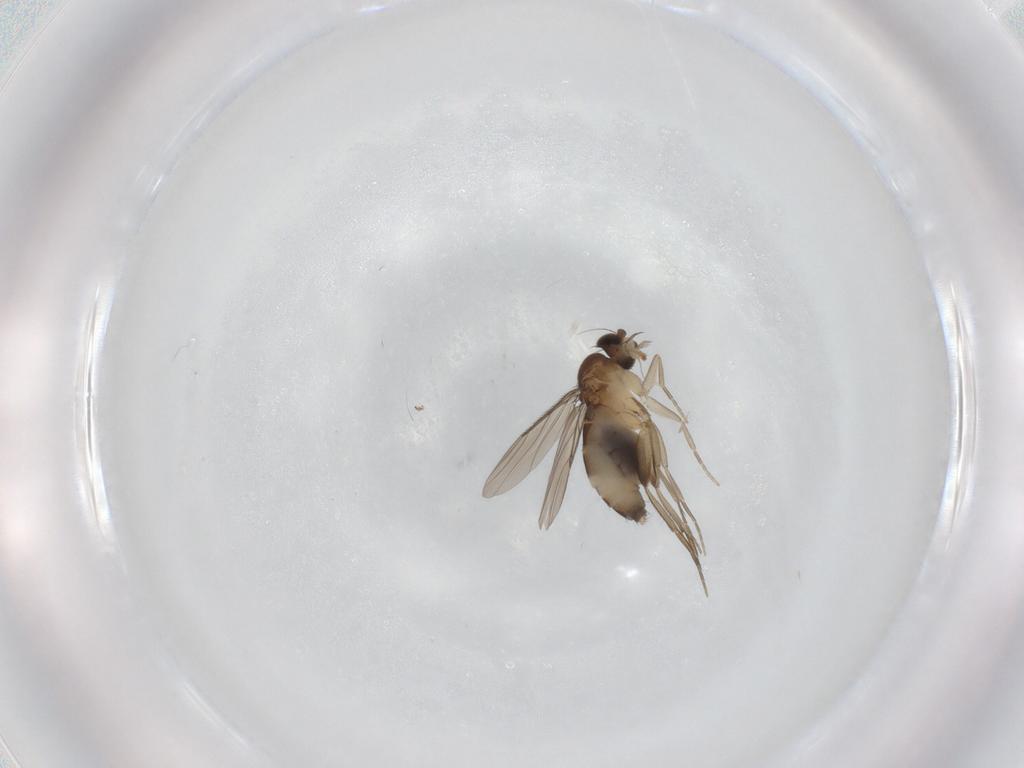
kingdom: Animalia
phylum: Arthropoda
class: Insecta
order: Diptera
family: Phoridae
